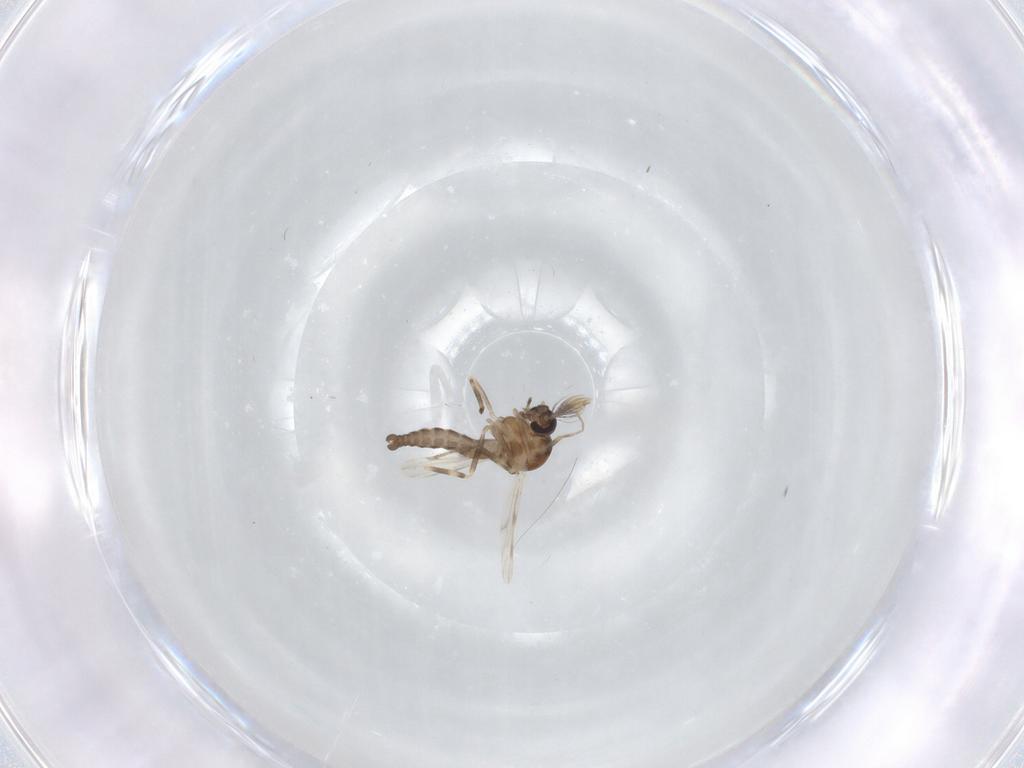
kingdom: Animalia
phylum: Arthropoda
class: Insecta
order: Diptera
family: Ceratopogonidae
